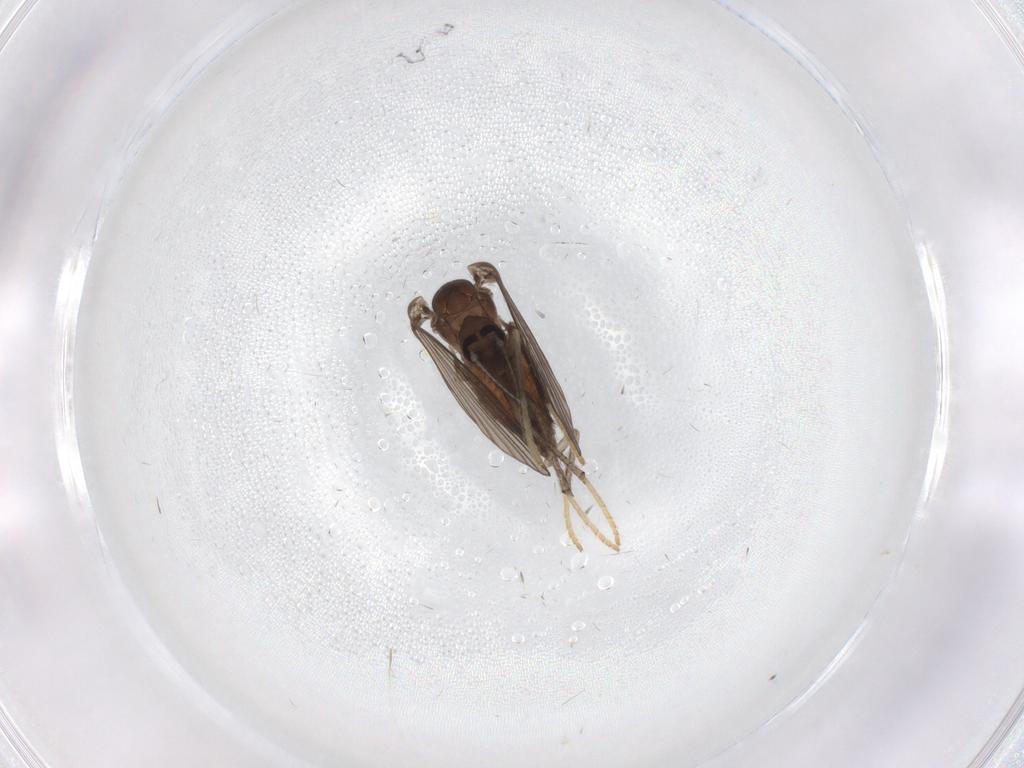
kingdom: Animalia
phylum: Arthropoda
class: Insecta
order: Diptera
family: Psychodidae
